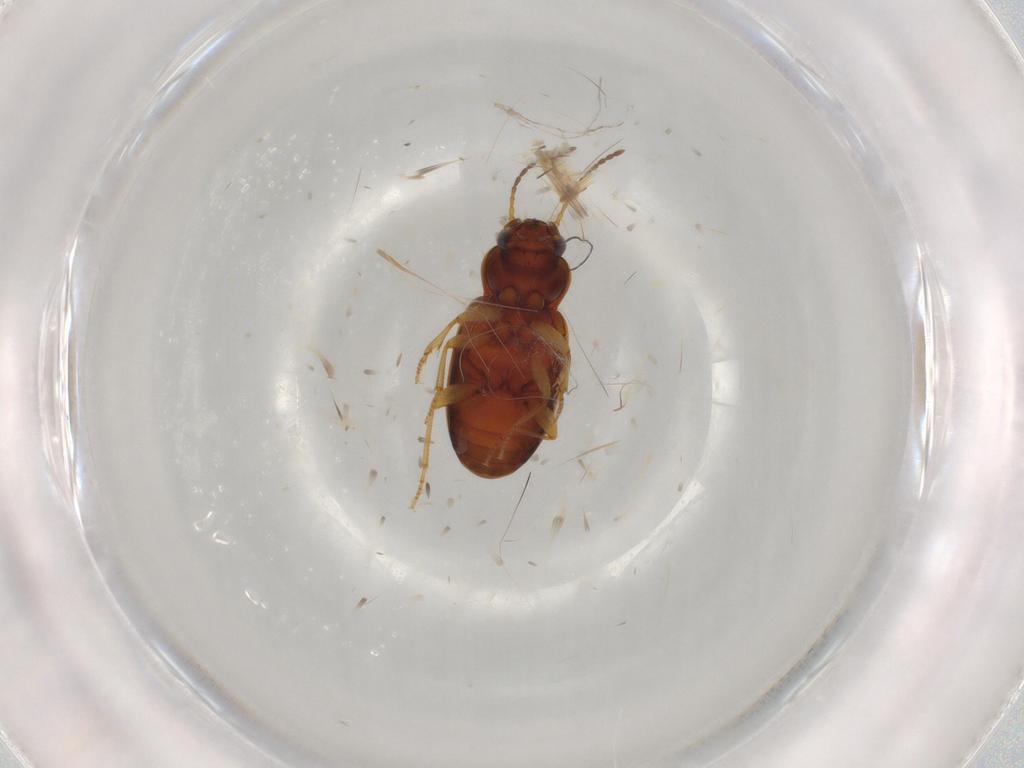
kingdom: Animalia
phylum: Arthropoda
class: Insecta
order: Coleoptera
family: Carabidae
